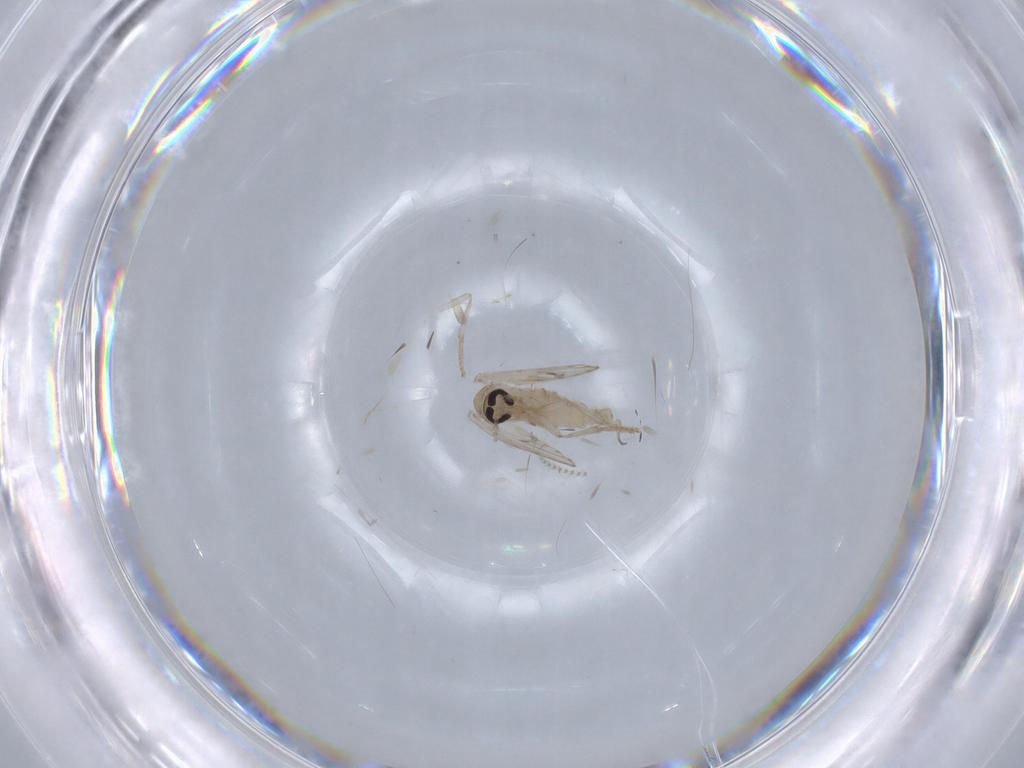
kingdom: Animalia
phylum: Arthropoda
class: Insecta
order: Diptera
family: Psychodidae
